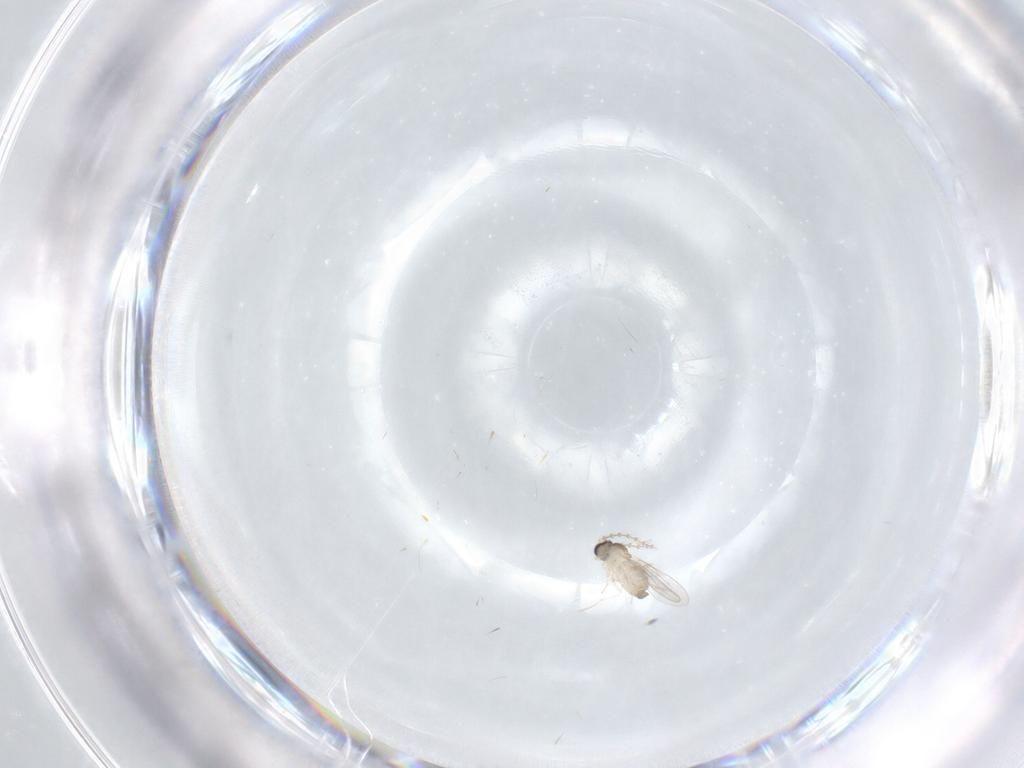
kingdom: Animalia
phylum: Arthropoda
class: Insecta
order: Diptera
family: Cecidomyiidae
